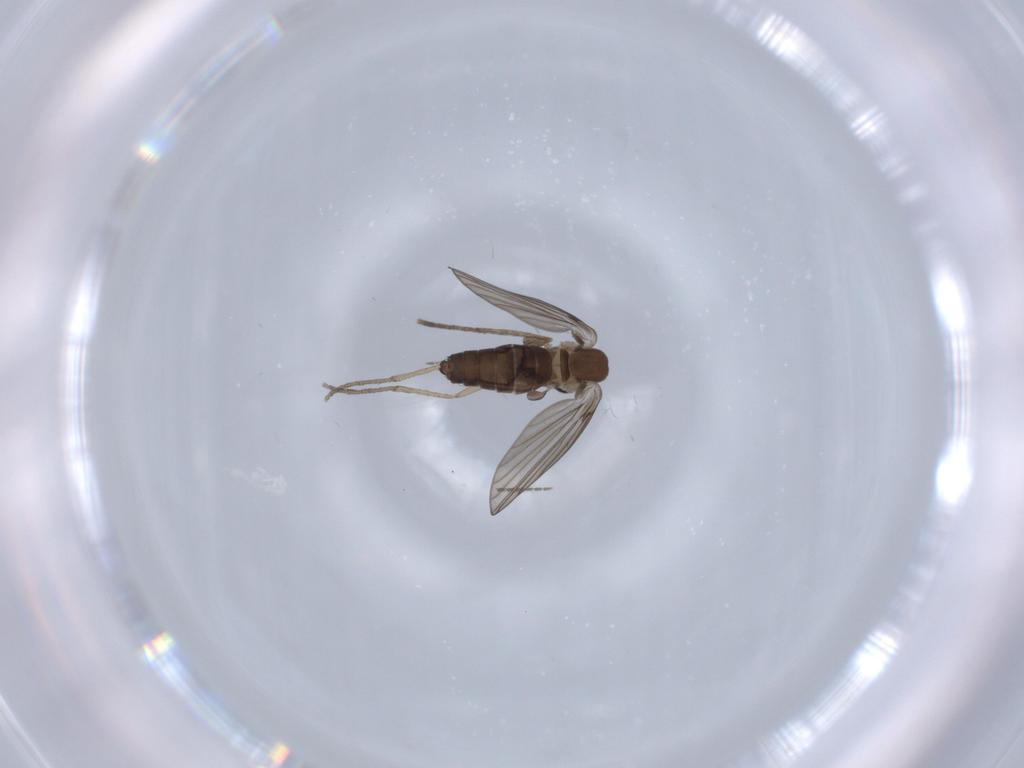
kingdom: Animalia
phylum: Arthropoda
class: Insecta
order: Diptera
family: Psychodidae
